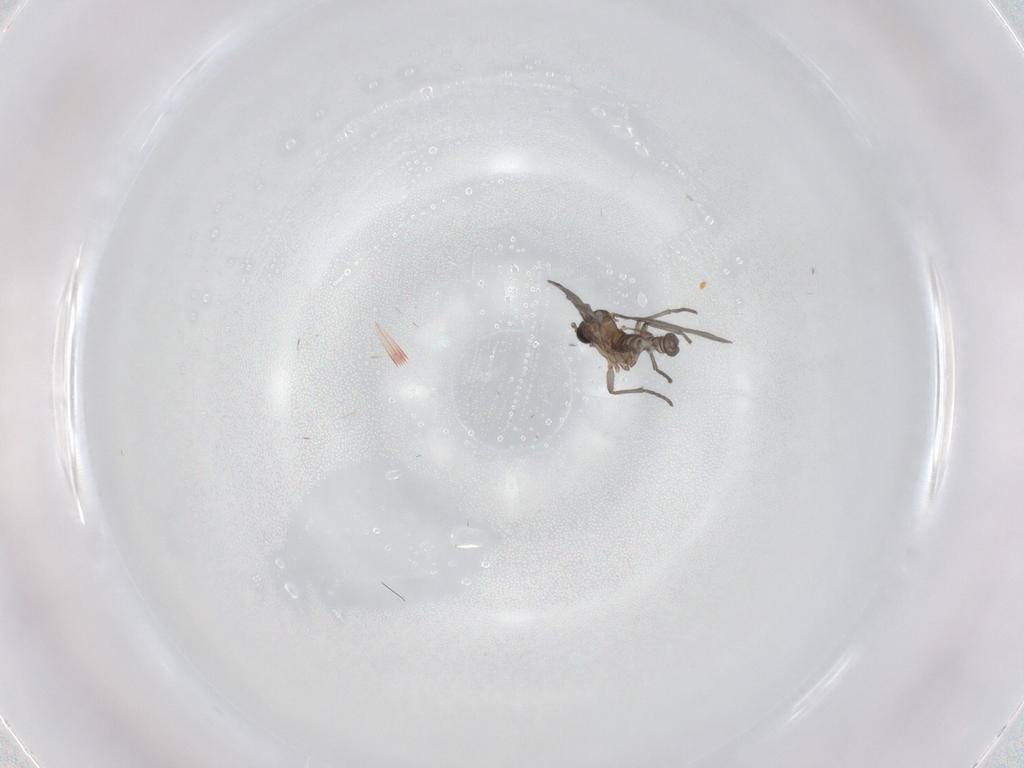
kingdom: Animalia
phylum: Arthropoda
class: Insecta
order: Diptera
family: Sciaridae
